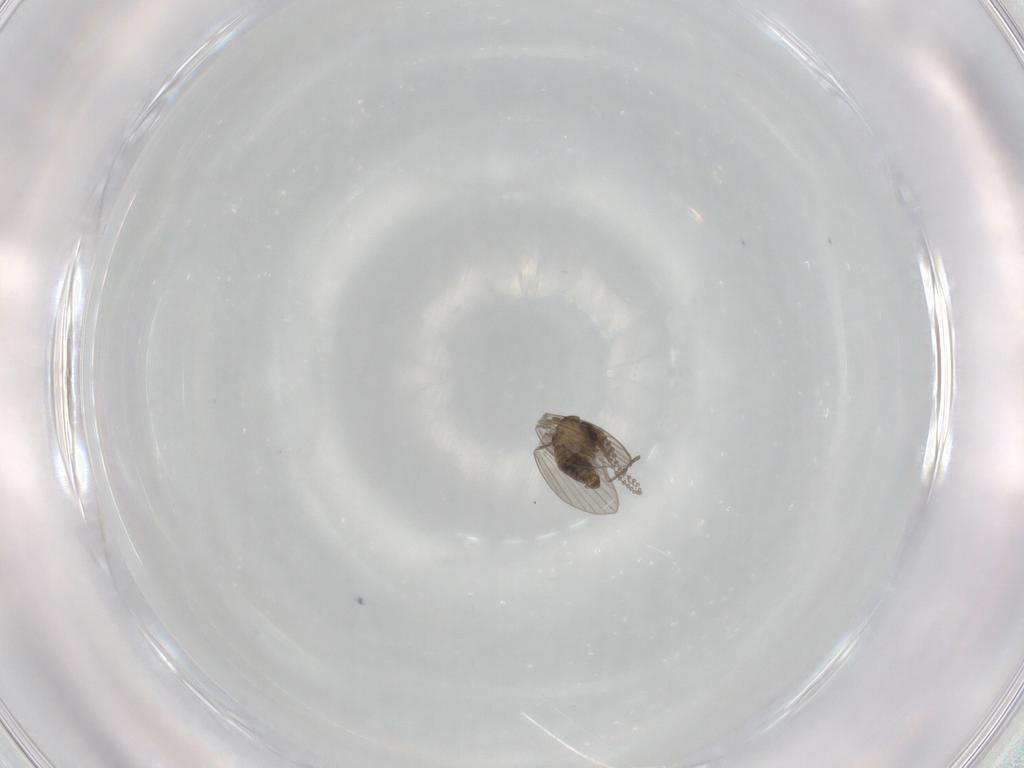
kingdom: Animalia
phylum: Arthropoda
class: Insecta
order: Diptera
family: Psychodidae
